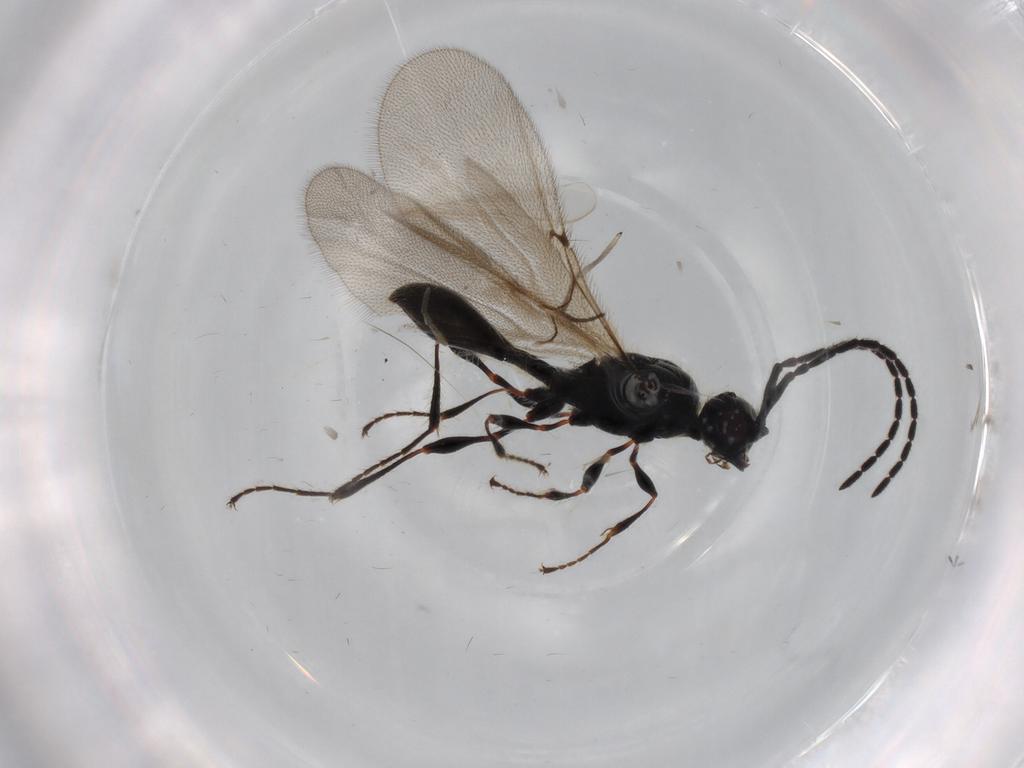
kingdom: Animalia
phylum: Arthropoda
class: Insecta
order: Hymenoptera
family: Diapriidae
